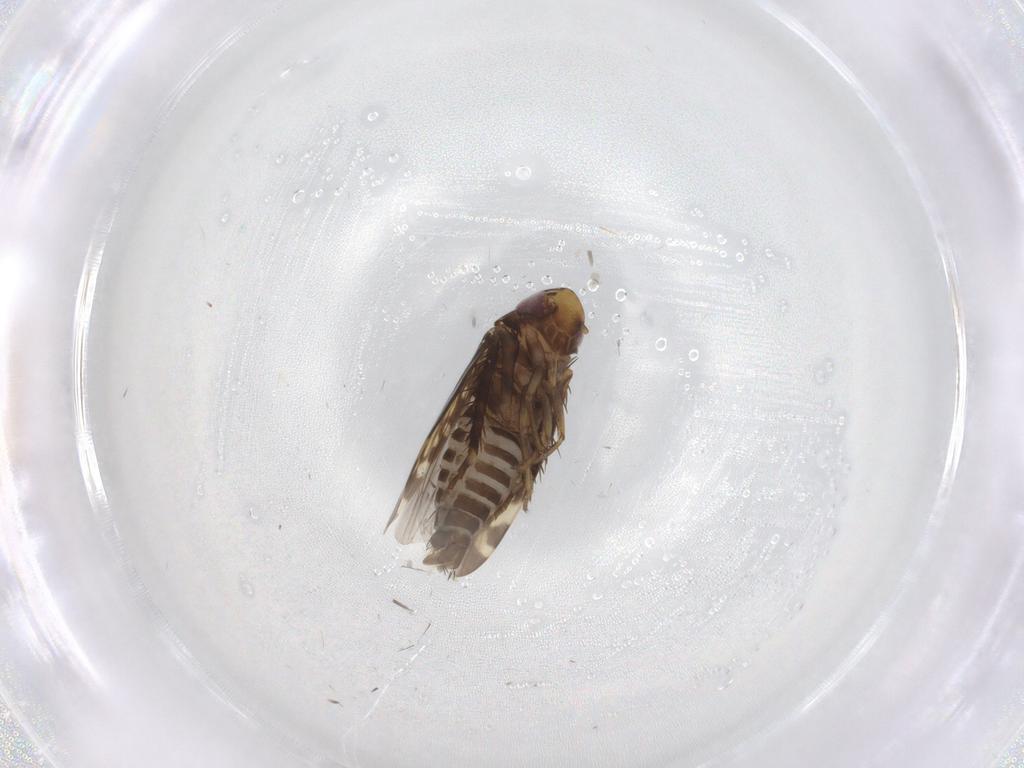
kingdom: Animalia
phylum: Arthropoda
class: Insecta
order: Hemiptera
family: Cicadellidae
